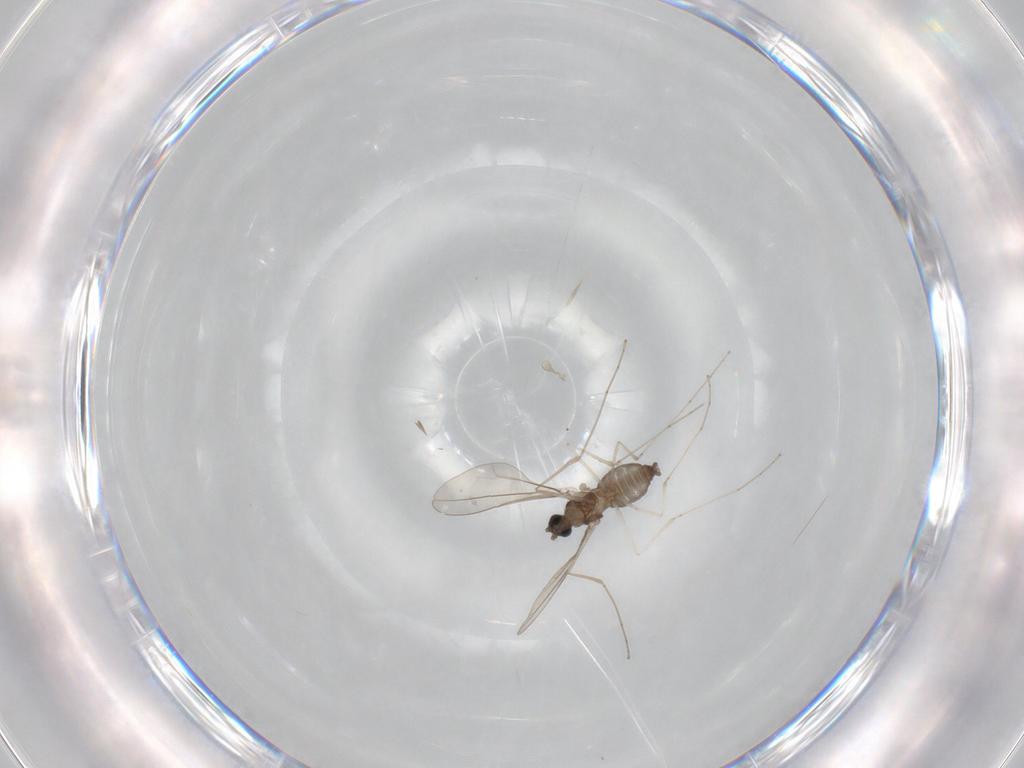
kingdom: Animalia
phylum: Arthropoda
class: Insecta
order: Diptera
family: Cecidomyiidae
